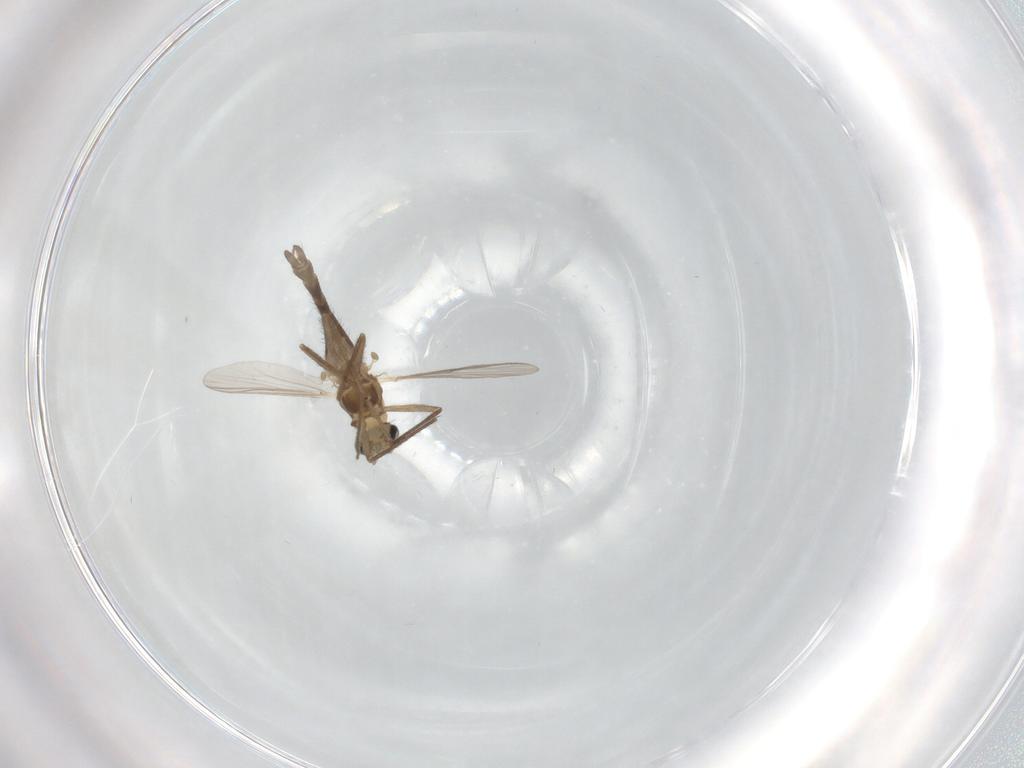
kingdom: Animalia
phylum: Arthropoda
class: Insecta
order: Diptera
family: Chironomidae
